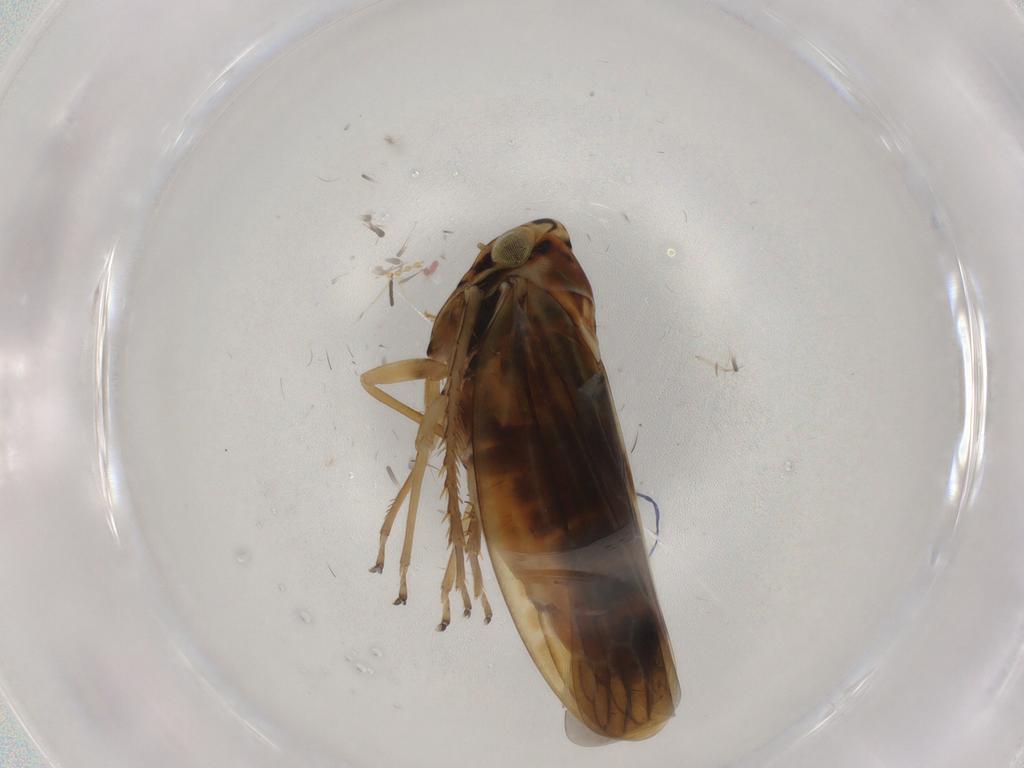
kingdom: Animalia
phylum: Arthropoda
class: Insecta
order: Hemiptera
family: Cicadellidae
